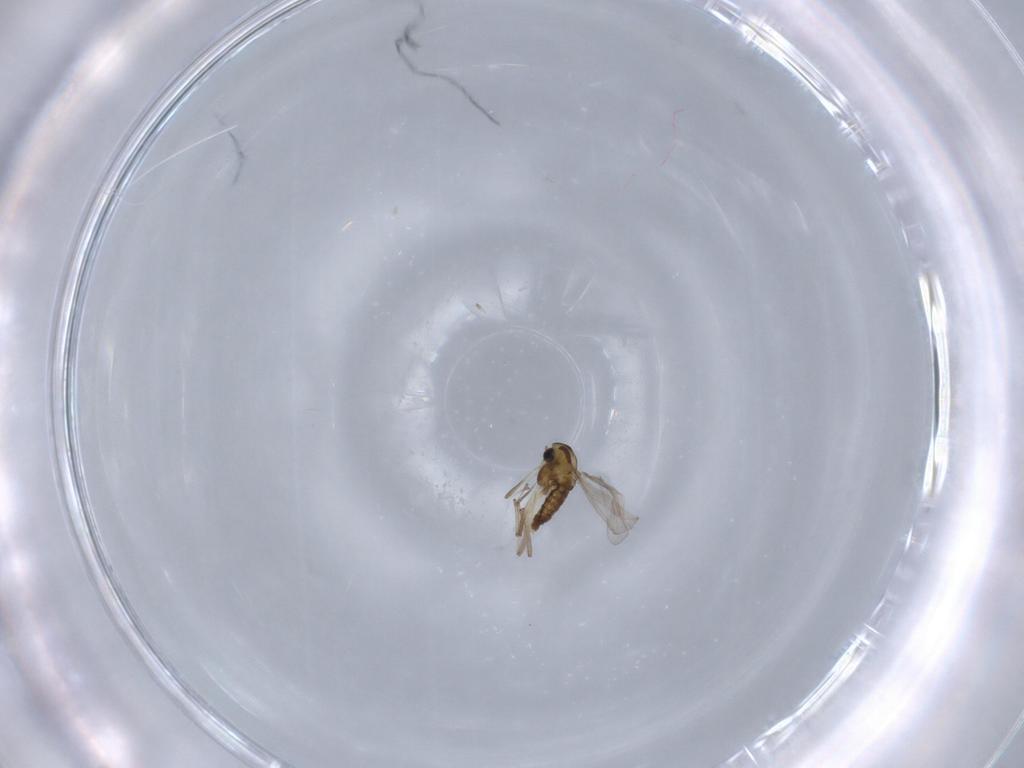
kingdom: Animalia
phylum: Arthropoda
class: Insecta
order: Diptera
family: Chironomidae
